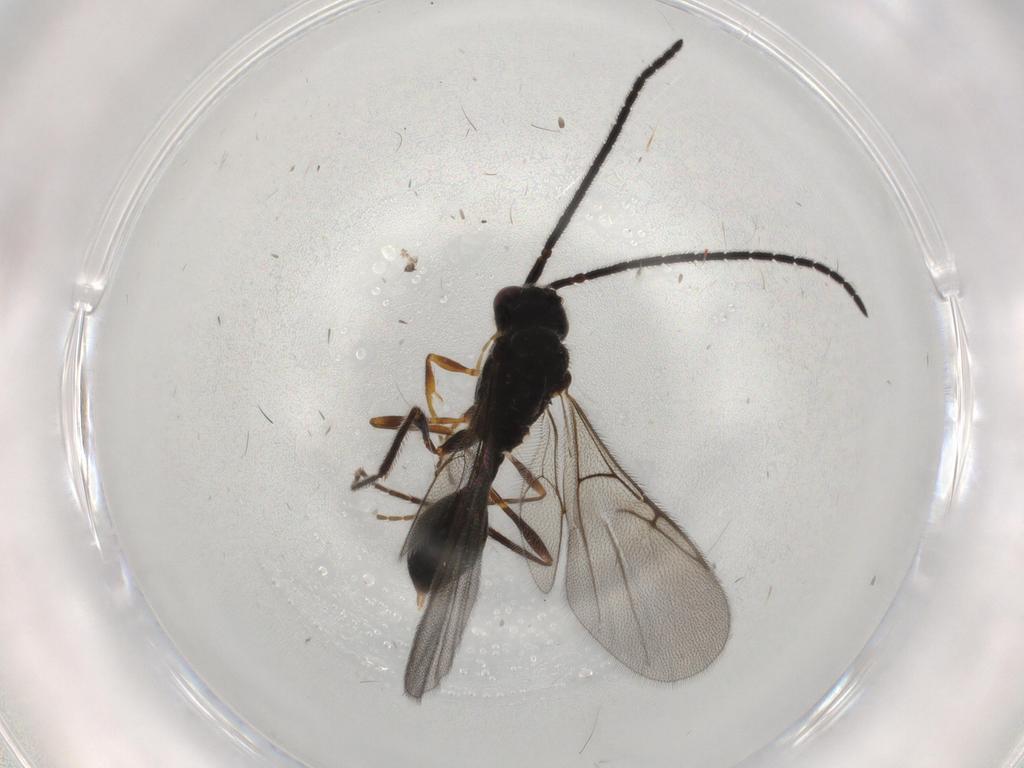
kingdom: Animalia
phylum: Arthropoda
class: Insecta
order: Hymenoptera
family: Diapriidae
